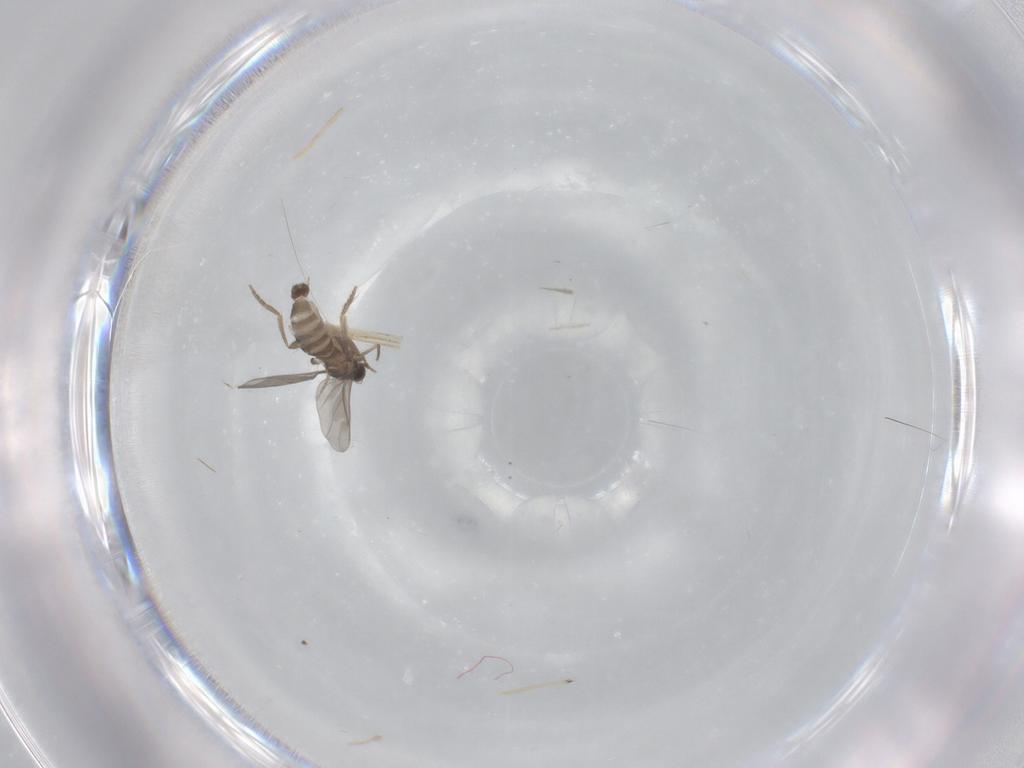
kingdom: Animalia
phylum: Arthropoda
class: Insecta
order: Diptera
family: Chironomidae
